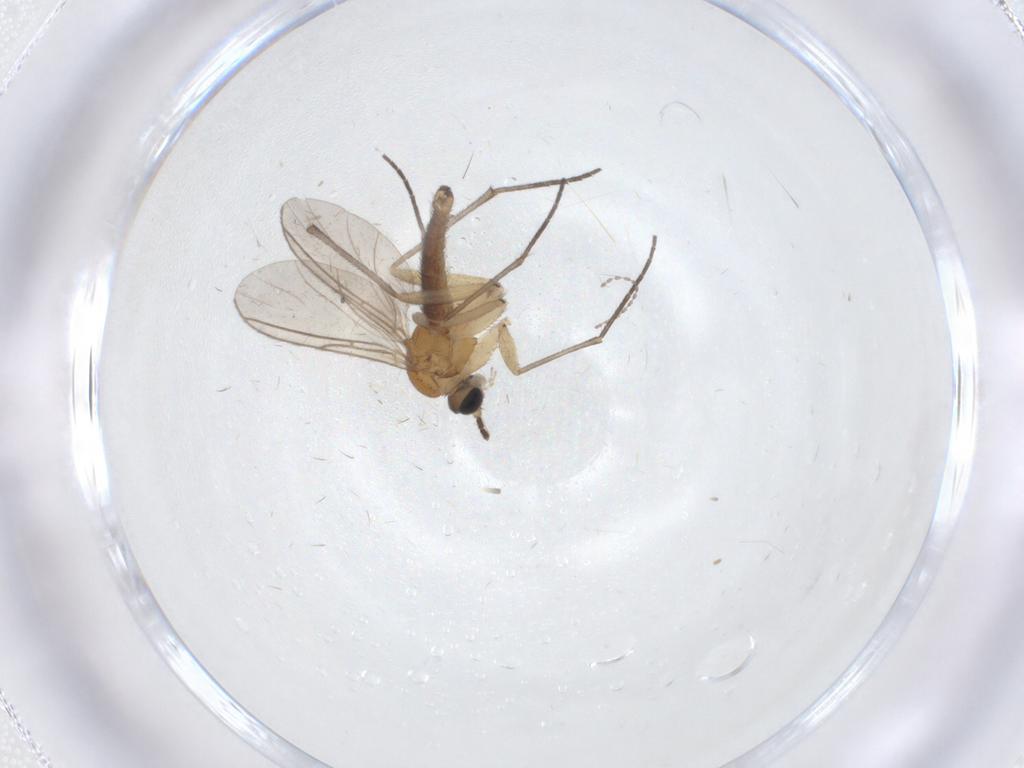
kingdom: Animalia
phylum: Arthropoda
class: Insecta
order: Diptera
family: Sciaridae
